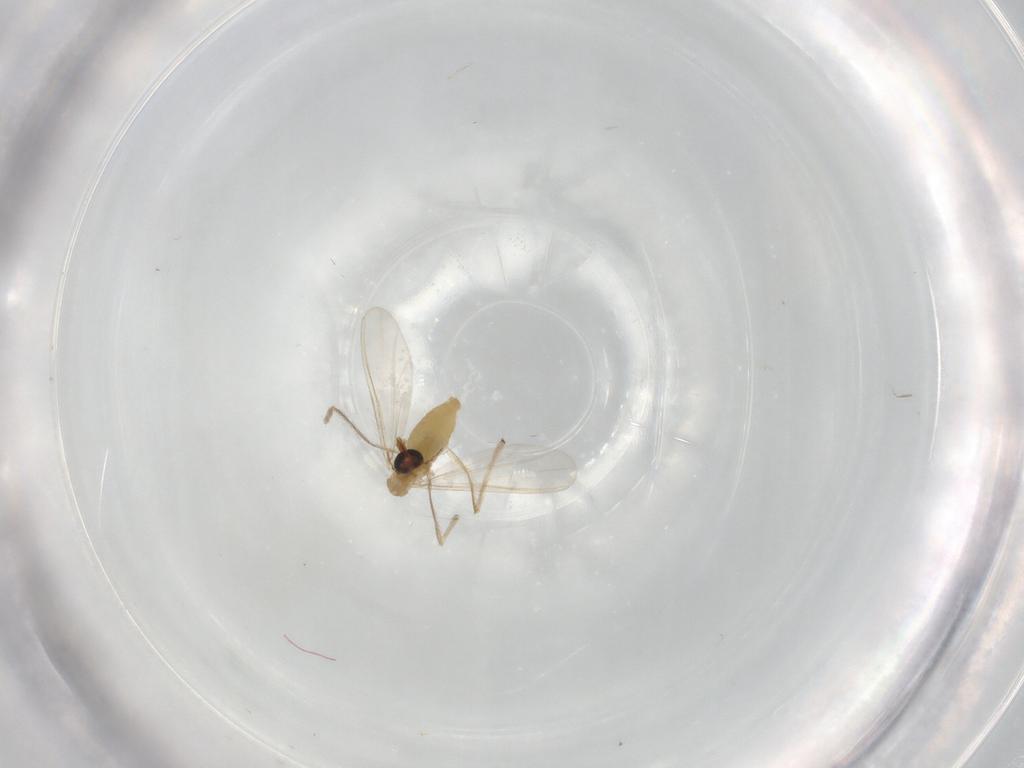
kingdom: Animalia
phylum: Arthropoda
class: Insecta
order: Diptera
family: Chironomidae
